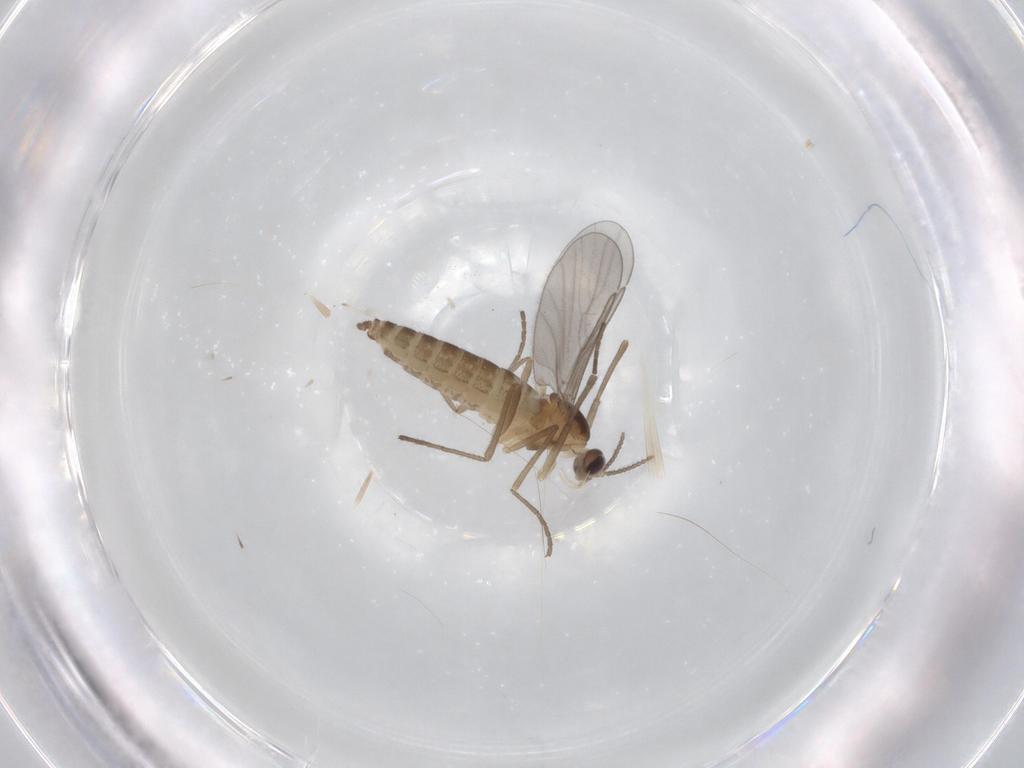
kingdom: Animalia
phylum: Arthropoda
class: Insecta
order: Diptera
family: Cecidomyiidae
